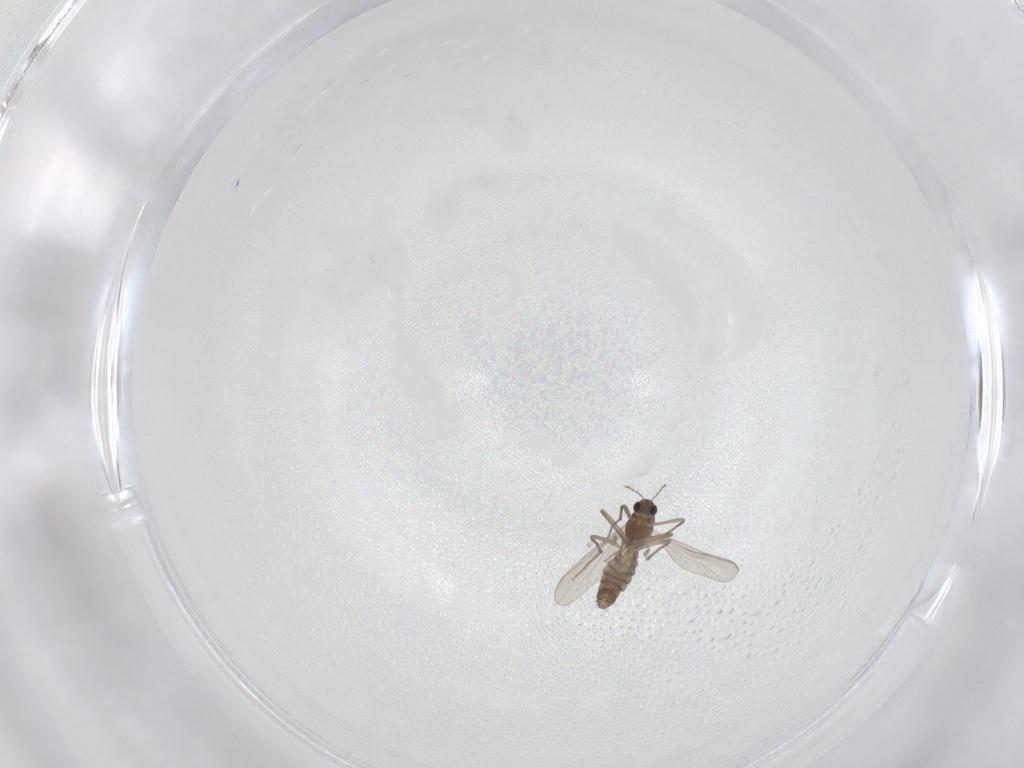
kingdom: Animalia
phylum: Arthropoda
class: Insecta
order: Diptera
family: Chironomidae
